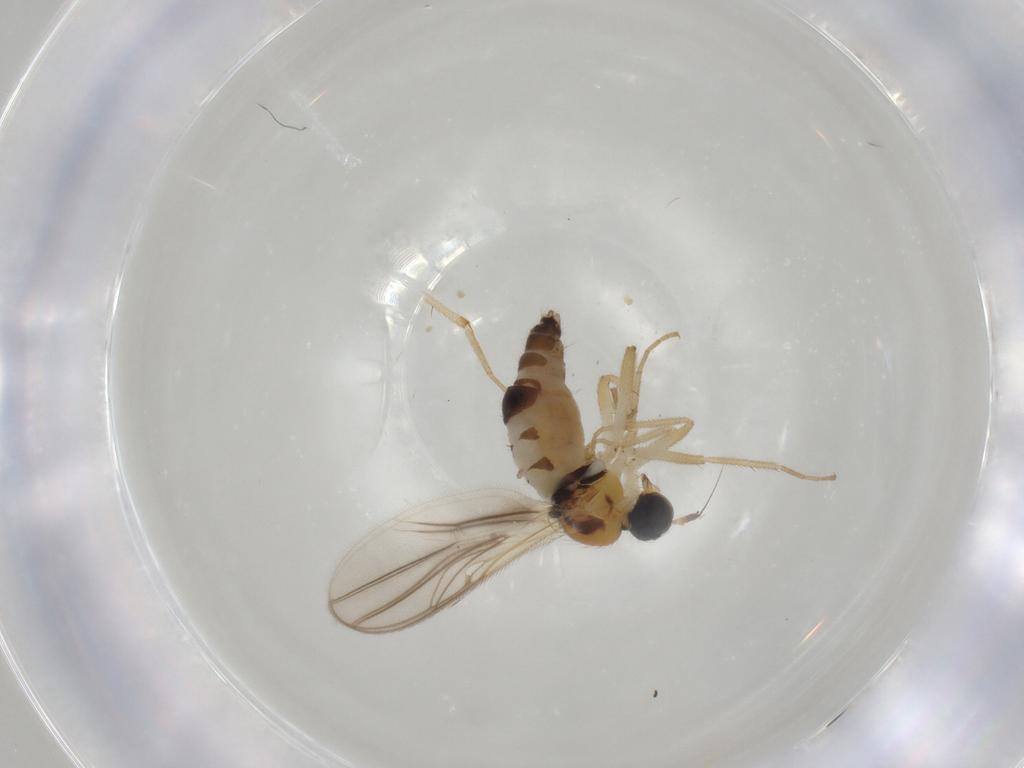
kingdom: Animalia
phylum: Arthropoda
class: Insecta
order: Diptera
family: Hybotidae
